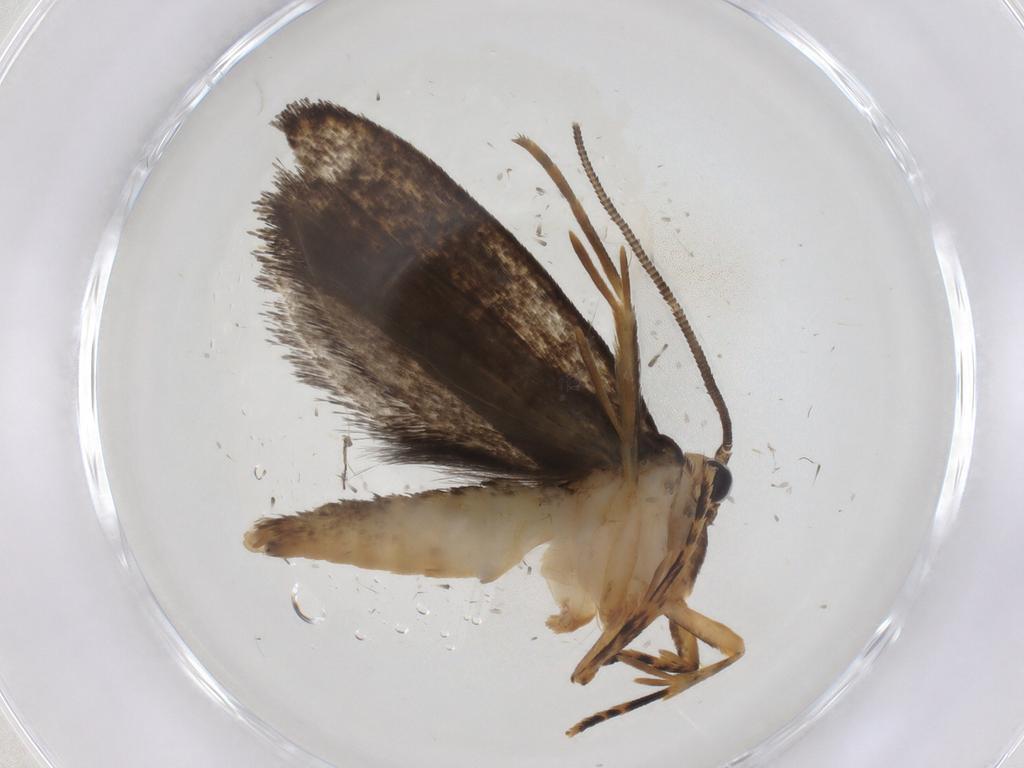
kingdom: Animalia
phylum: Arthropoda
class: Insecta
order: Lepidoptera
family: Tineidae
